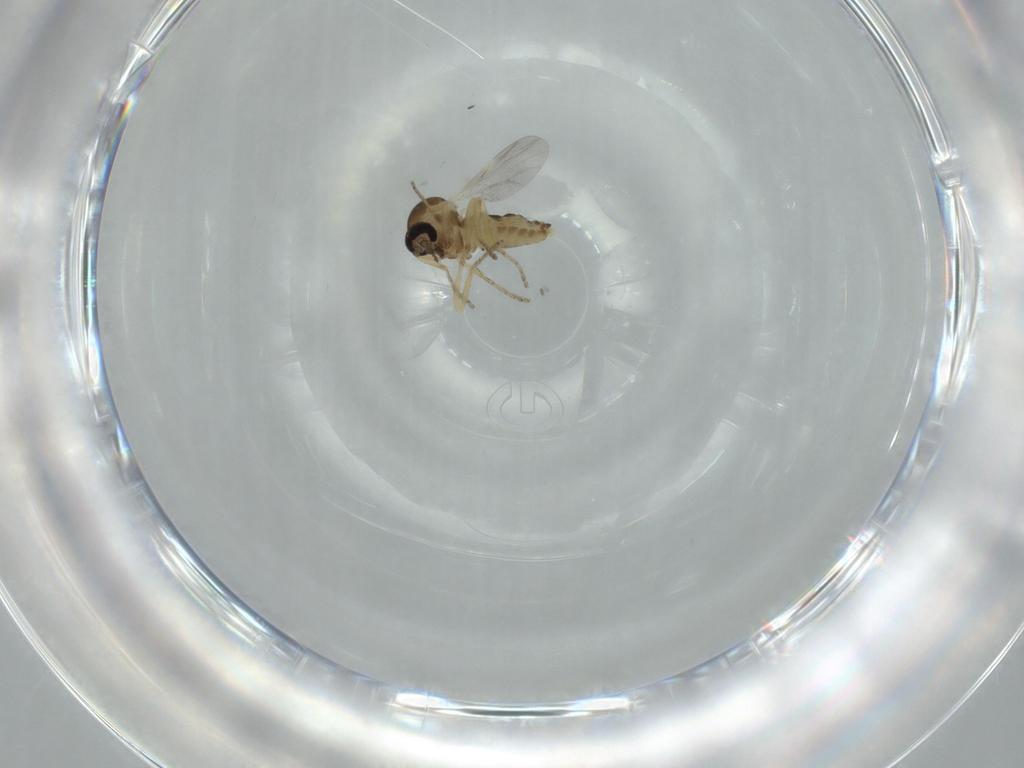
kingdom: Animalia
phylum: Arthropoda
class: Insecta
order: Diptera
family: Ceratopogonidae
